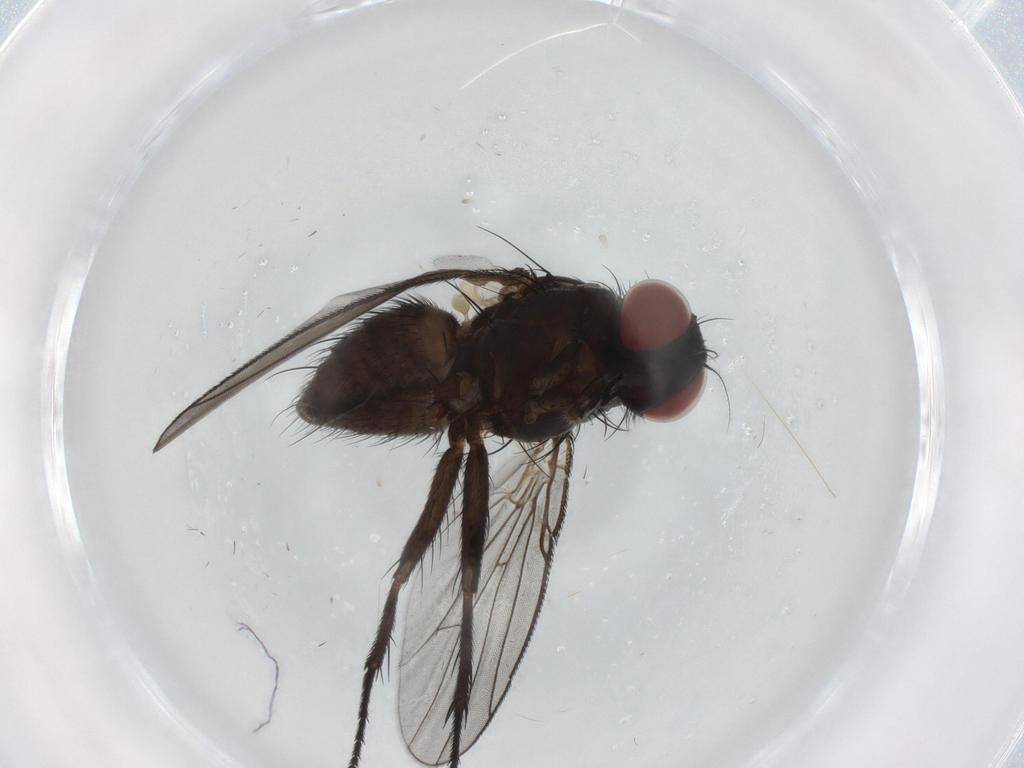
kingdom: Animalia
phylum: Arthropoda
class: Insecta
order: Diptera
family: Muscidae
